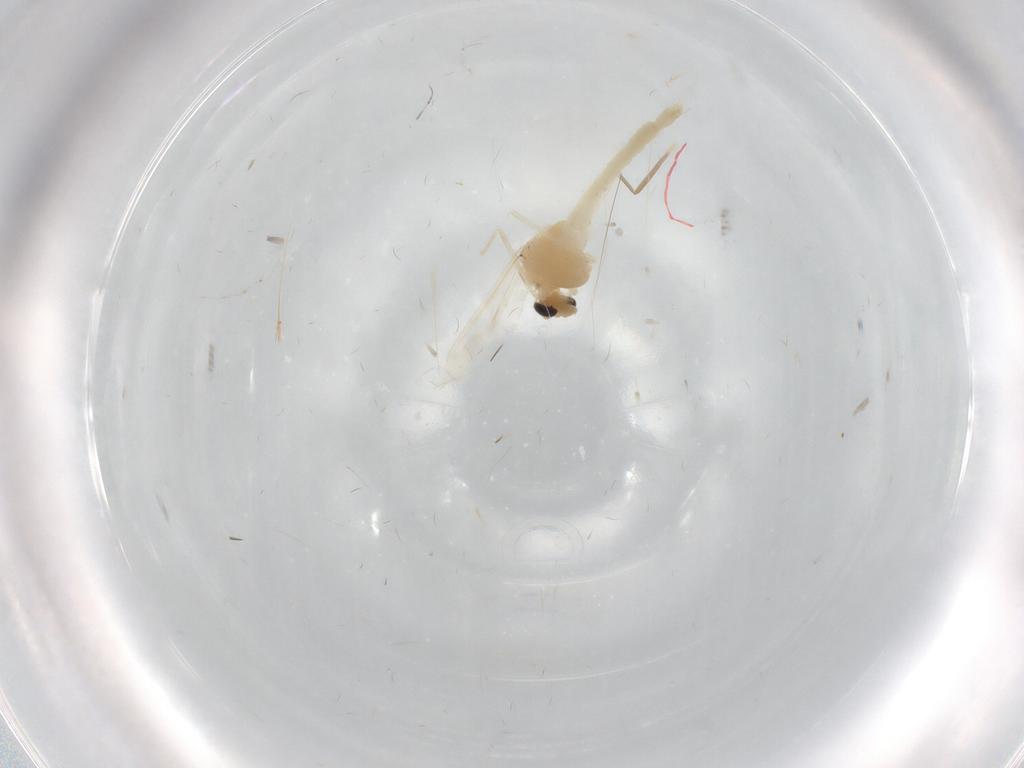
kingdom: Animalia
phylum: Arthropoda
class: Insecta
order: Diptera
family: Chironomidae
